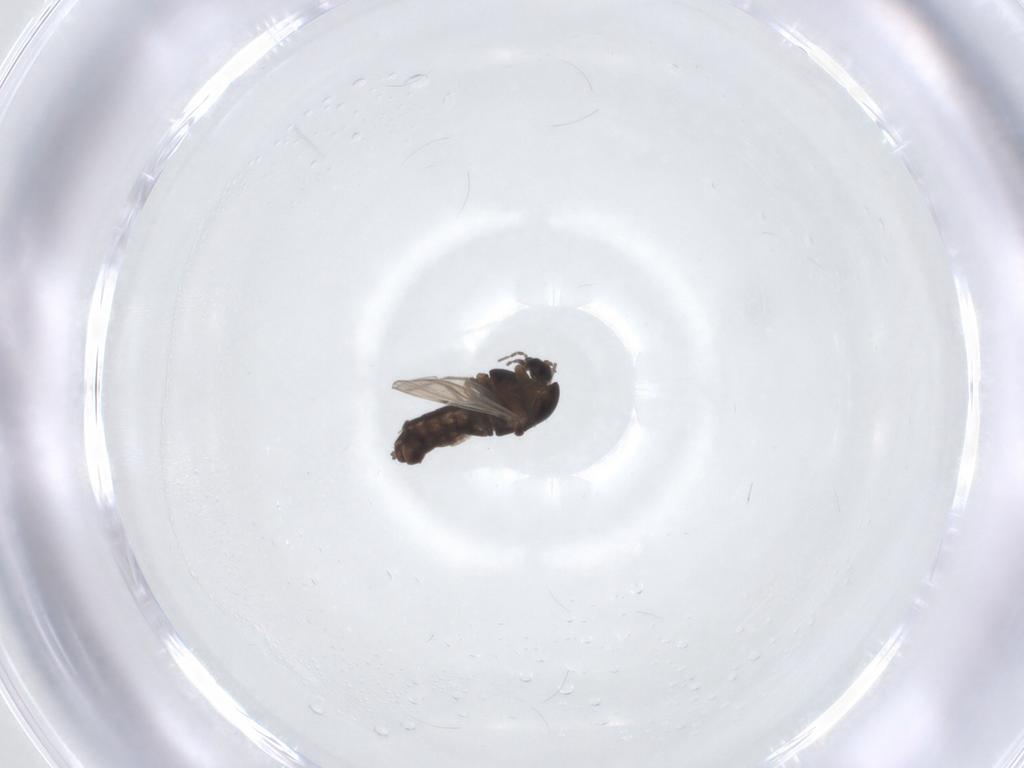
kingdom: Animalia
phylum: Arthropoda
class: Insecta
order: Diptera
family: Chironomidae
